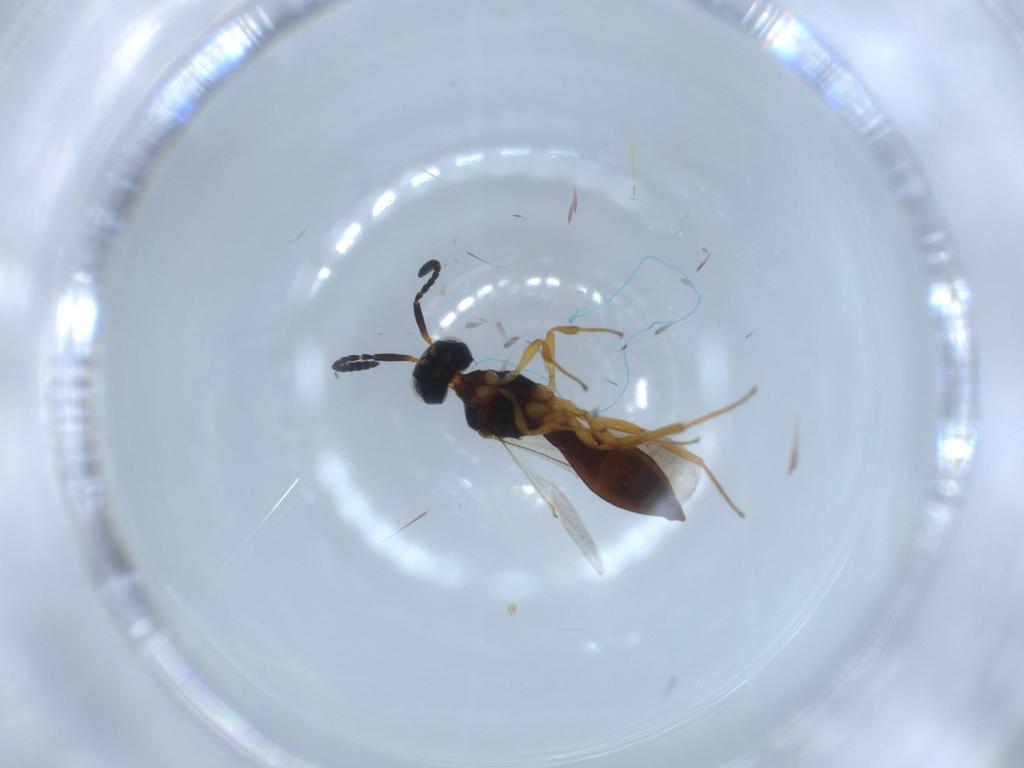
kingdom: Animalia
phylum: Arthropoda
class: Insecta
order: Hymenoptera
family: Formicidae
